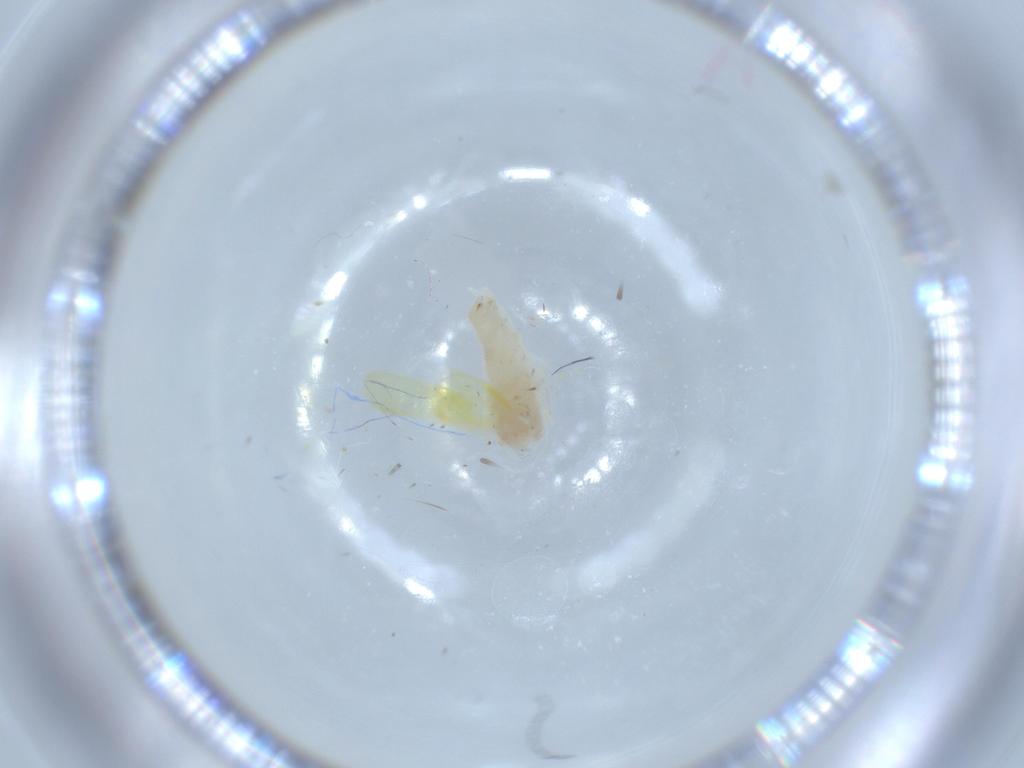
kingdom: Animalia
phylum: Arthropoda
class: Insecta
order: Hemiptera
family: Cicadellidae
